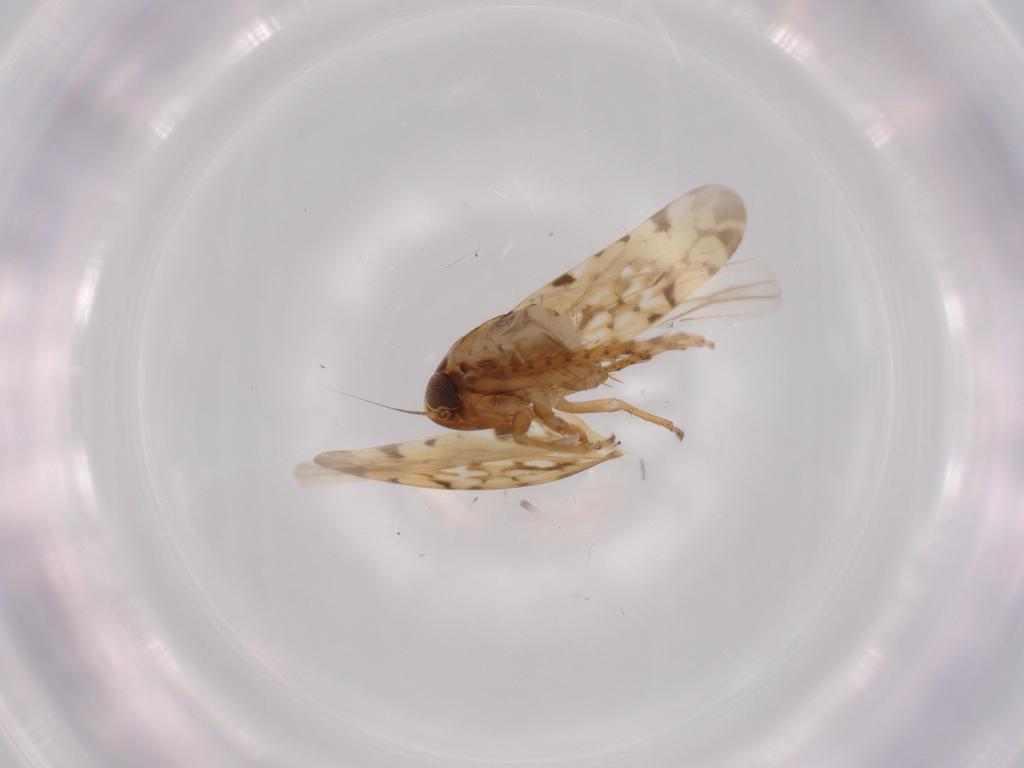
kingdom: Animalia
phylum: Arthropoda
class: Insecta
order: Hemiptera
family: Cicadellidae
